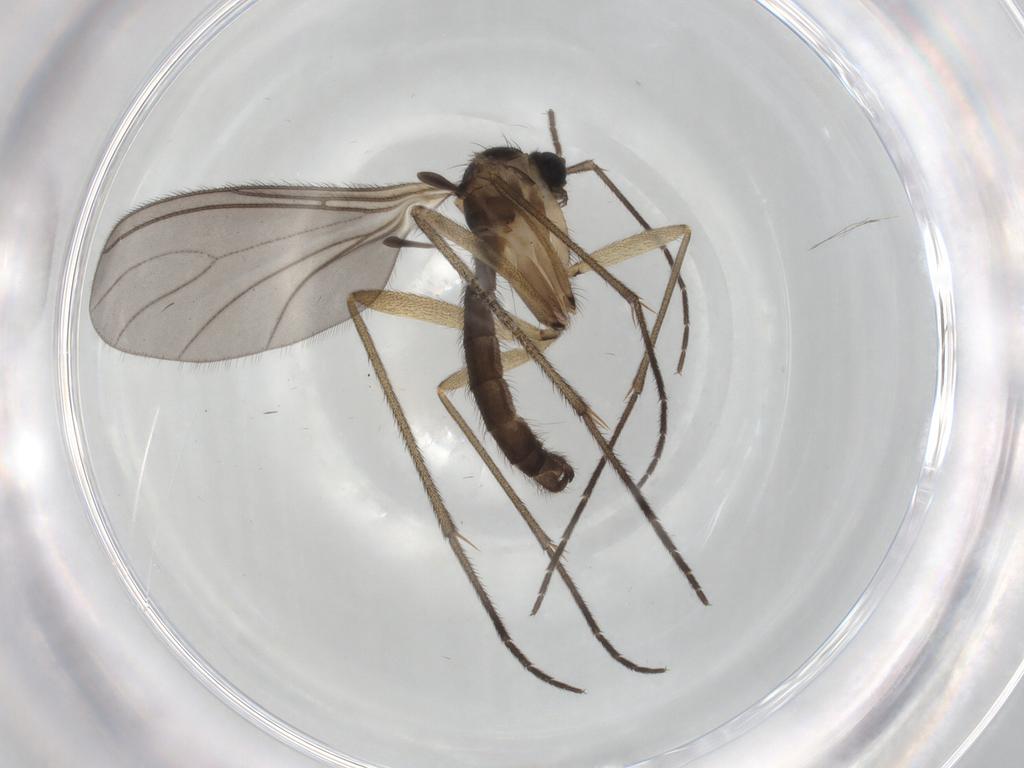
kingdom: Animalia
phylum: Arthropoda
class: Insecta
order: Diptera
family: Sciaridae
